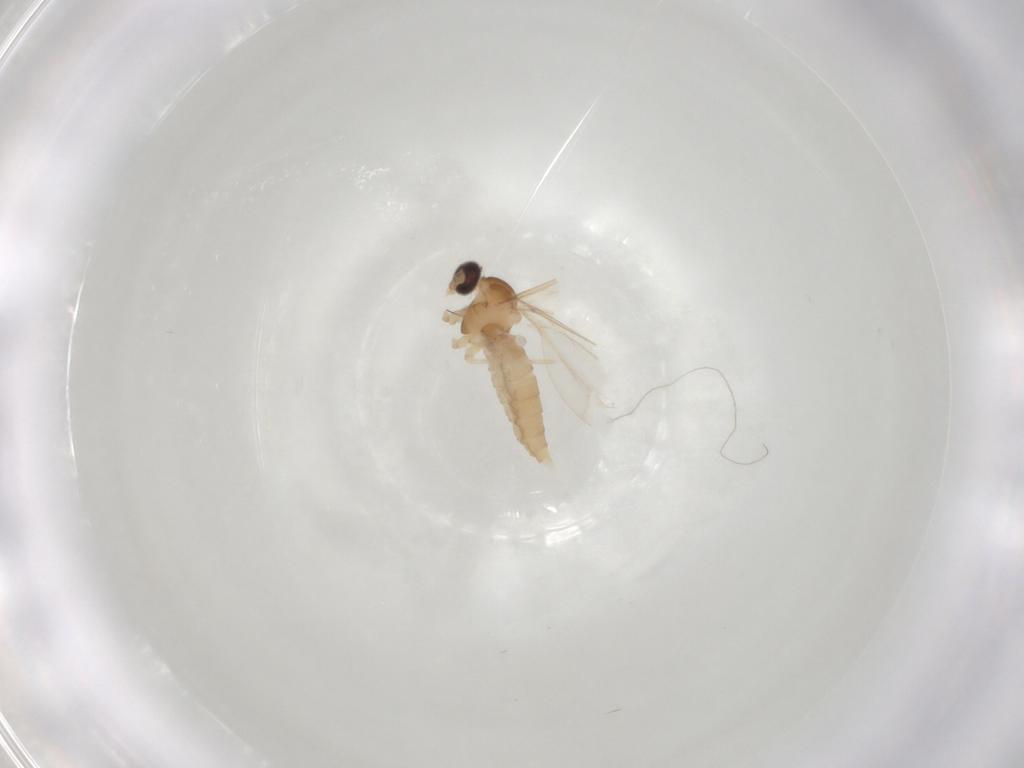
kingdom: Animalia
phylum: Arthropoda
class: Insecta
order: Diptera
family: Cecidomyiidae
